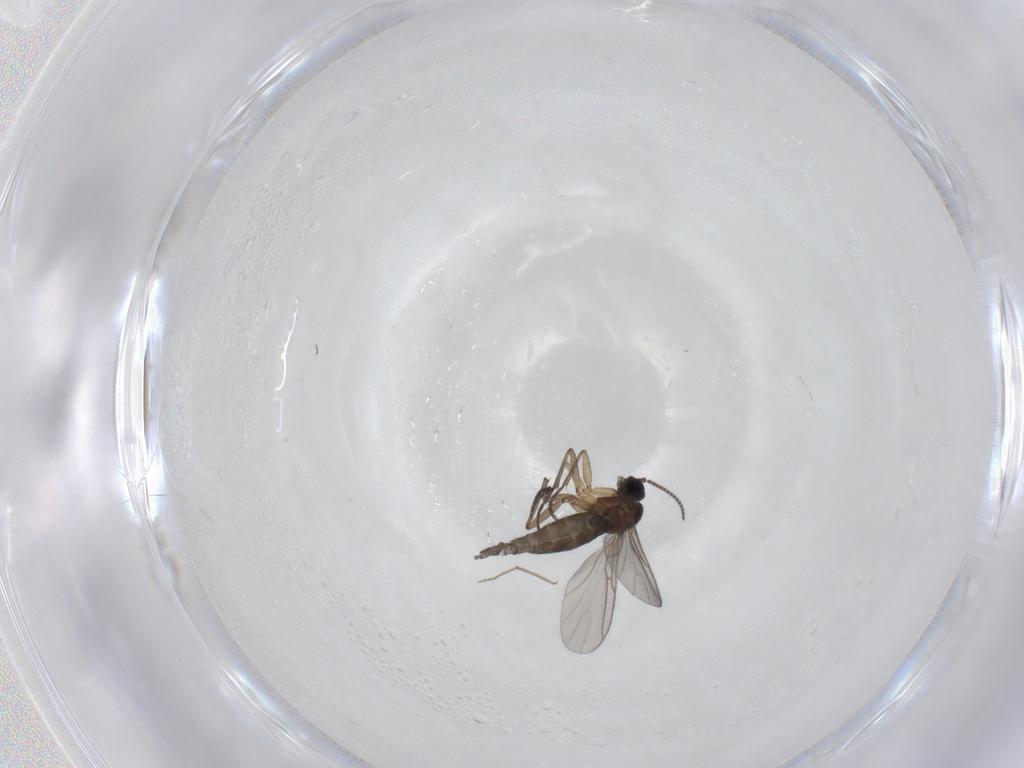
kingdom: Animalia
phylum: Arthropoda
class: Insecta
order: Diptera
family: Sciaridae
